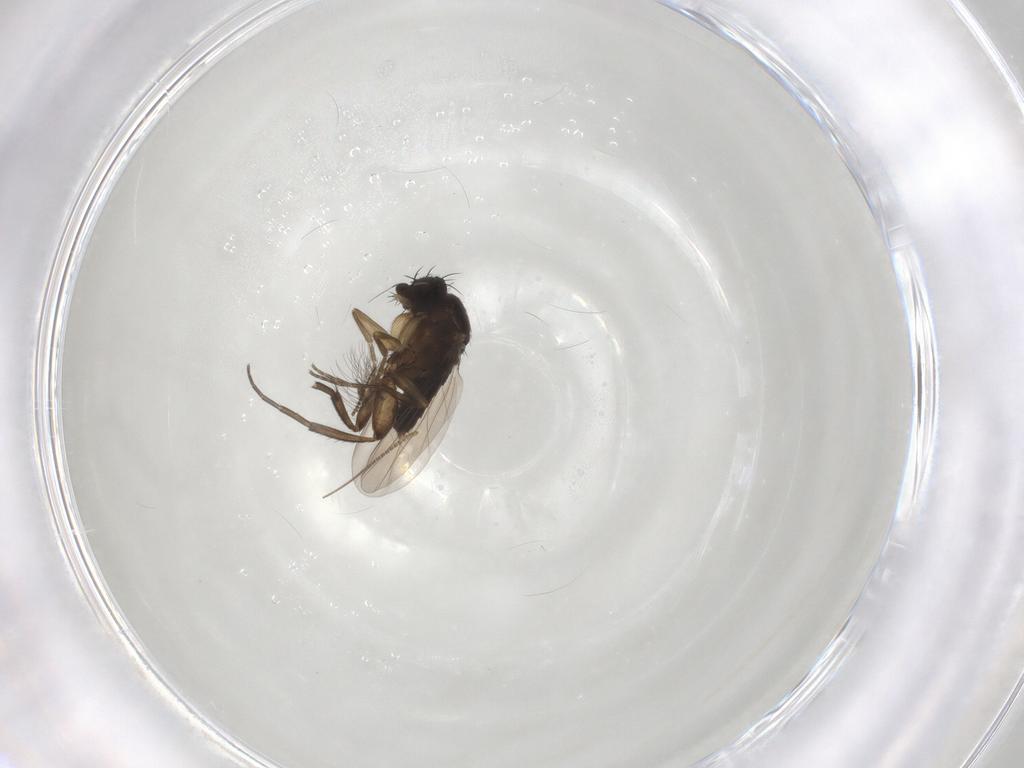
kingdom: Animalia
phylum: Arthropoda
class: Insecta
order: Diptera
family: Phoridae
